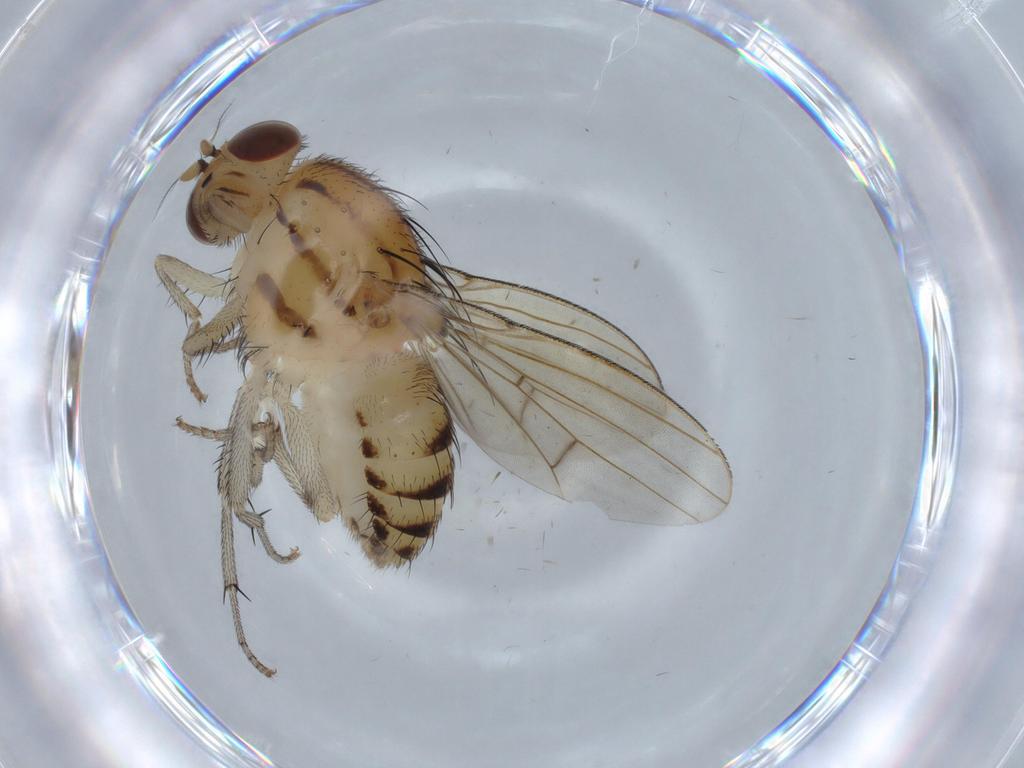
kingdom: Animalia
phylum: Arthropoda
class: Insecta
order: Diptera
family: Lauxaniidae
